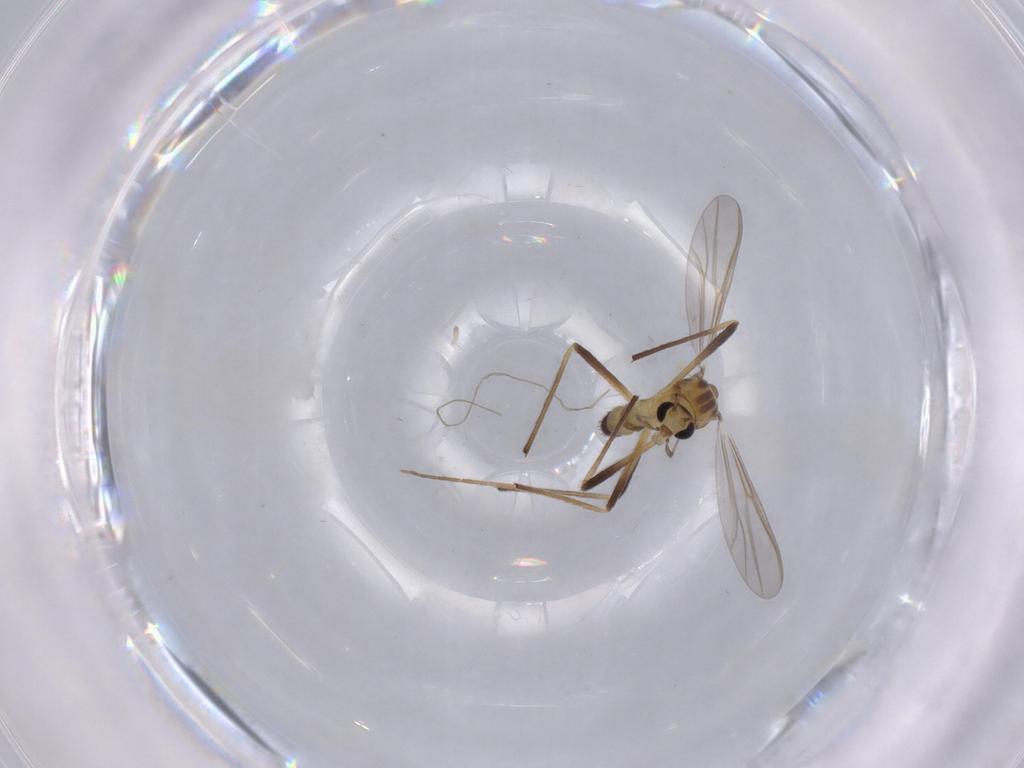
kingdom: Animalia
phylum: Arthropoda
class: Insecta
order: Diptera
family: Chironomidae
